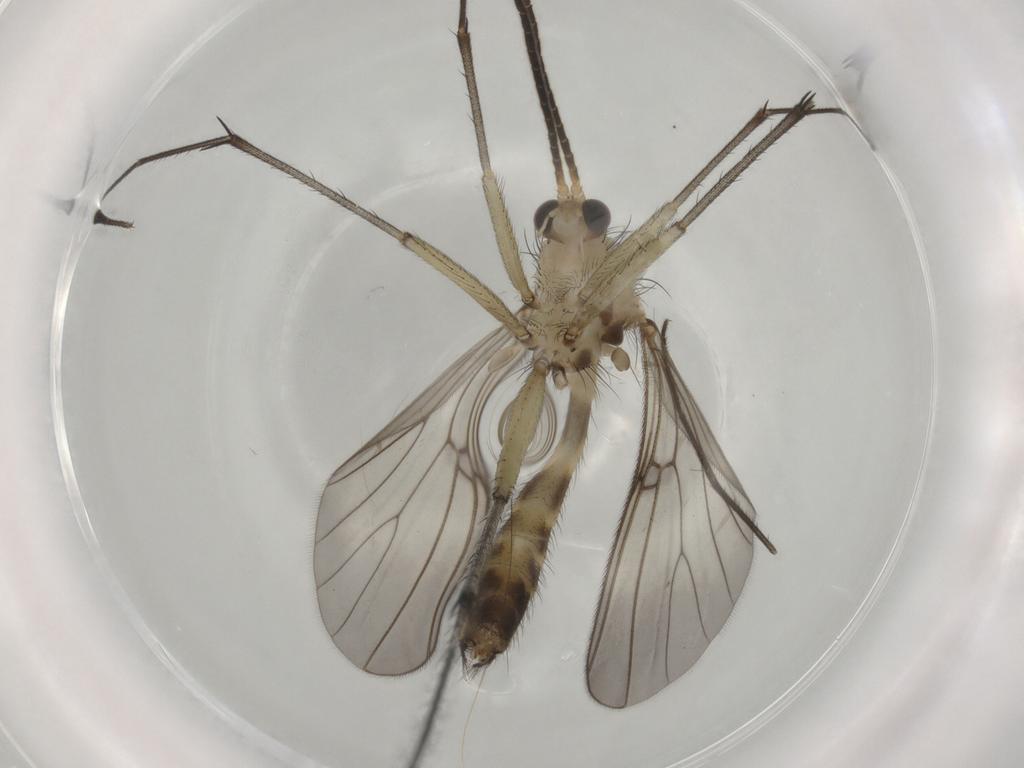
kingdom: Animalia
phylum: Arthropoda
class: Insecta
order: Diptera
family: Mycetophilidae
